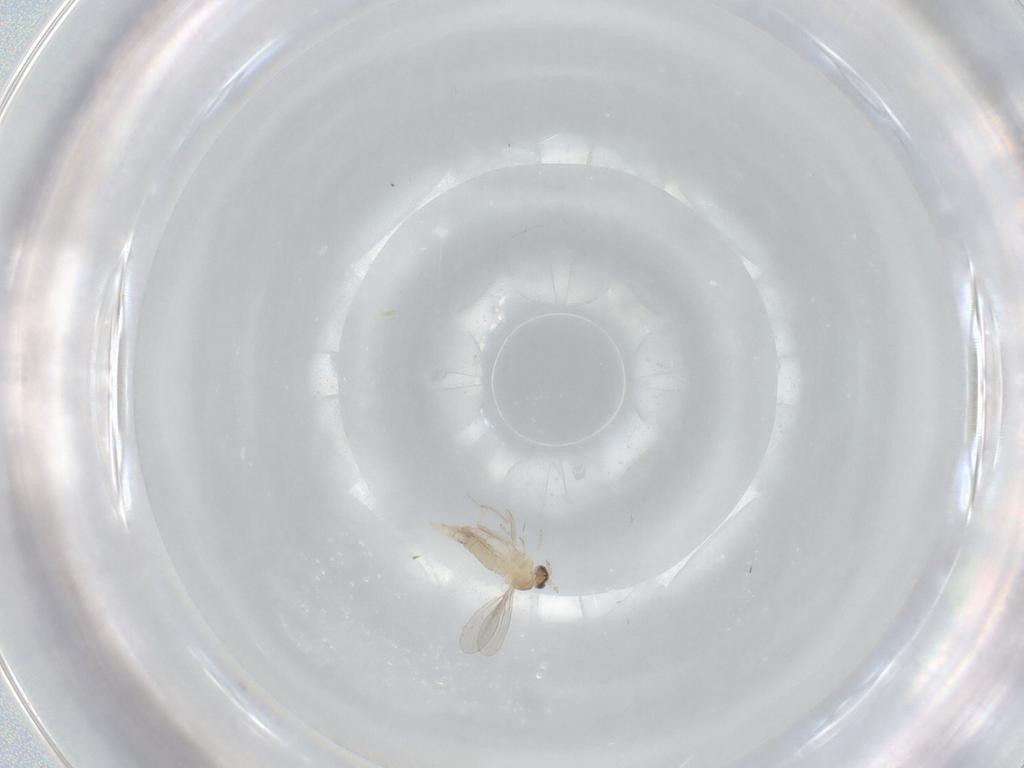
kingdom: Animalia
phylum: Arthropoda
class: Insecta
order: Diptera
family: Cecidomyiidae
